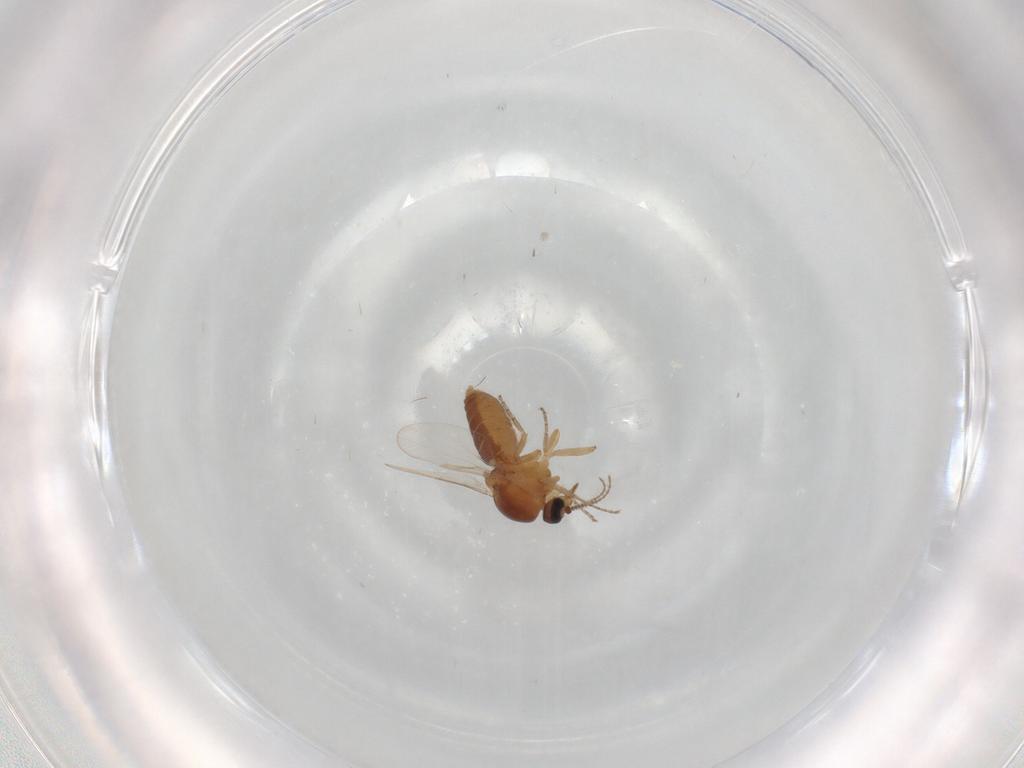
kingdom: Animalia
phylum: Arthropoda
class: Insecta
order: Diptera
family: Ceratopogonidae
